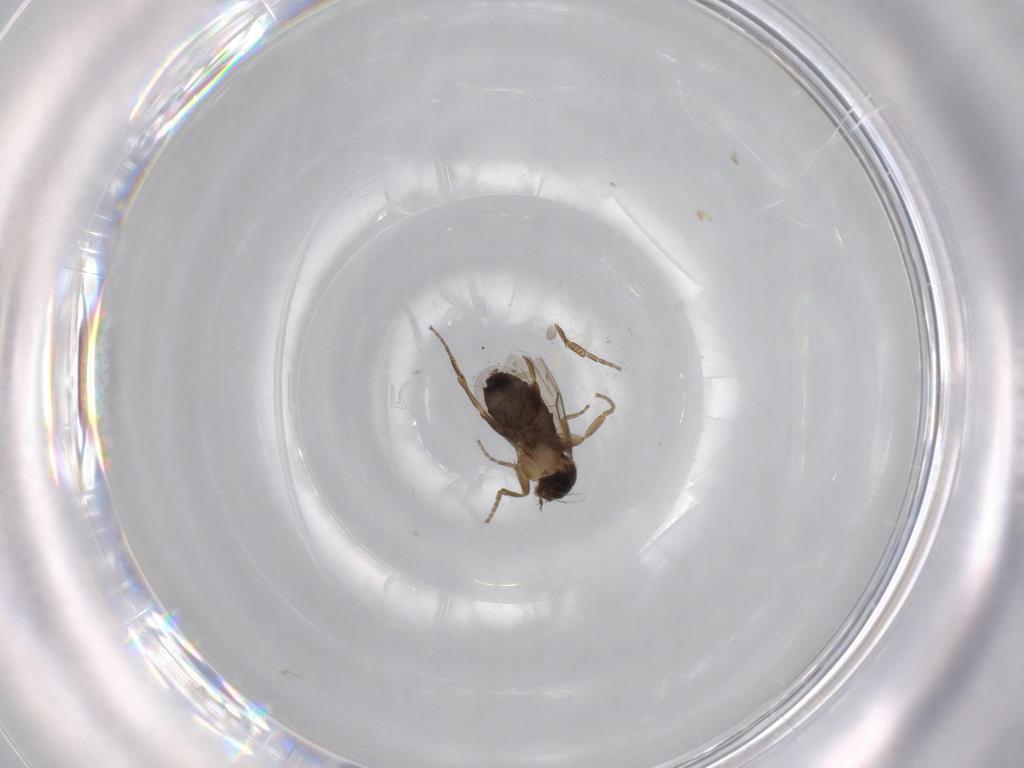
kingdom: Animalia
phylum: Arthropoda
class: Insecta
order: Diptera
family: Phoridae
